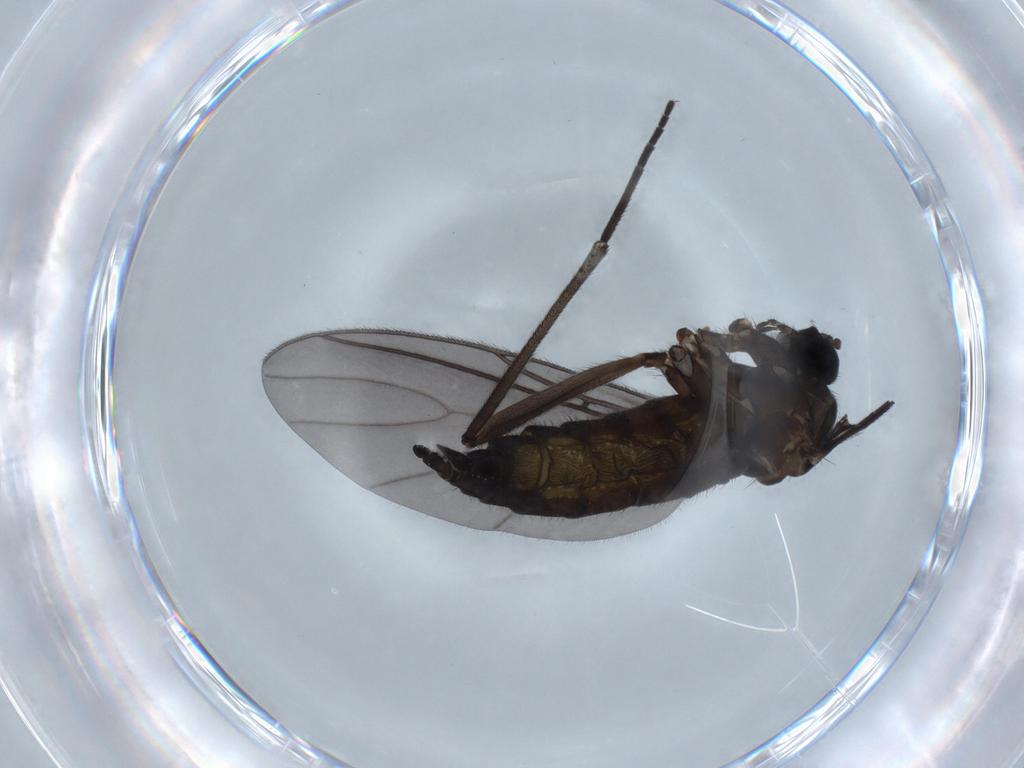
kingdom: Animalia
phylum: Arthropoda
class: Insecta
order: Diptera
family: Sciaridae
